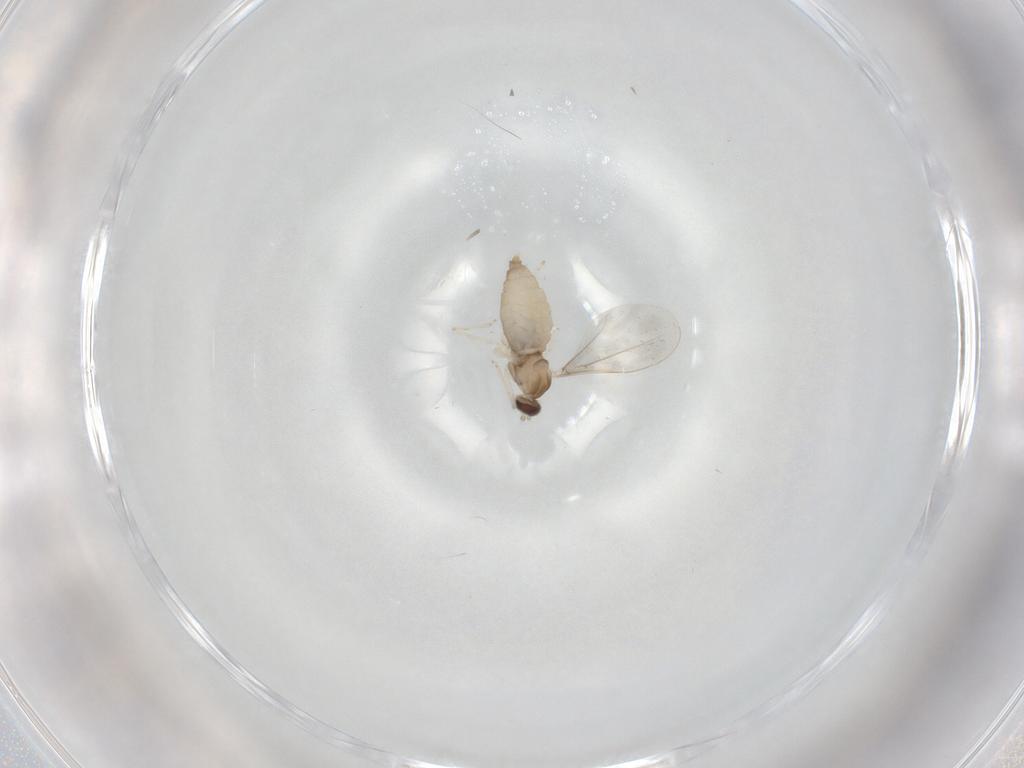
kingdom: Animalia
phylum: Arthropoda
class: Insecta
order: Diptera
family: Cecidomyiidae
